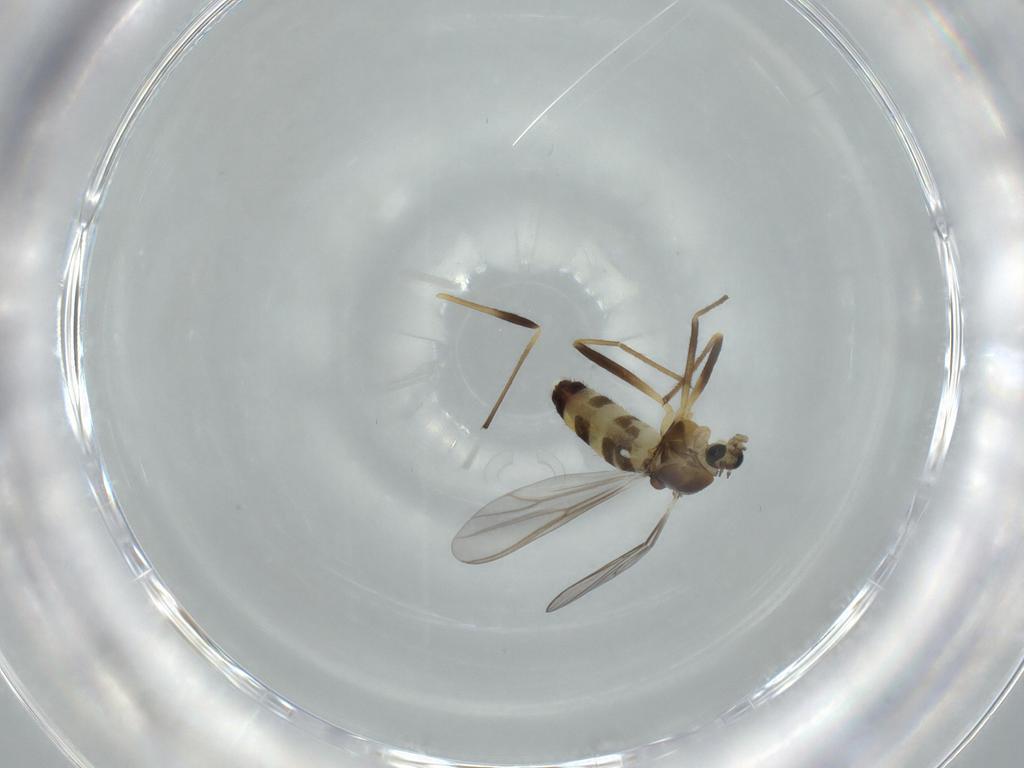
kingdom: Animalia
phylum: Arthropoda
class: Insecta
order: Diptera
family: Chironomidae
